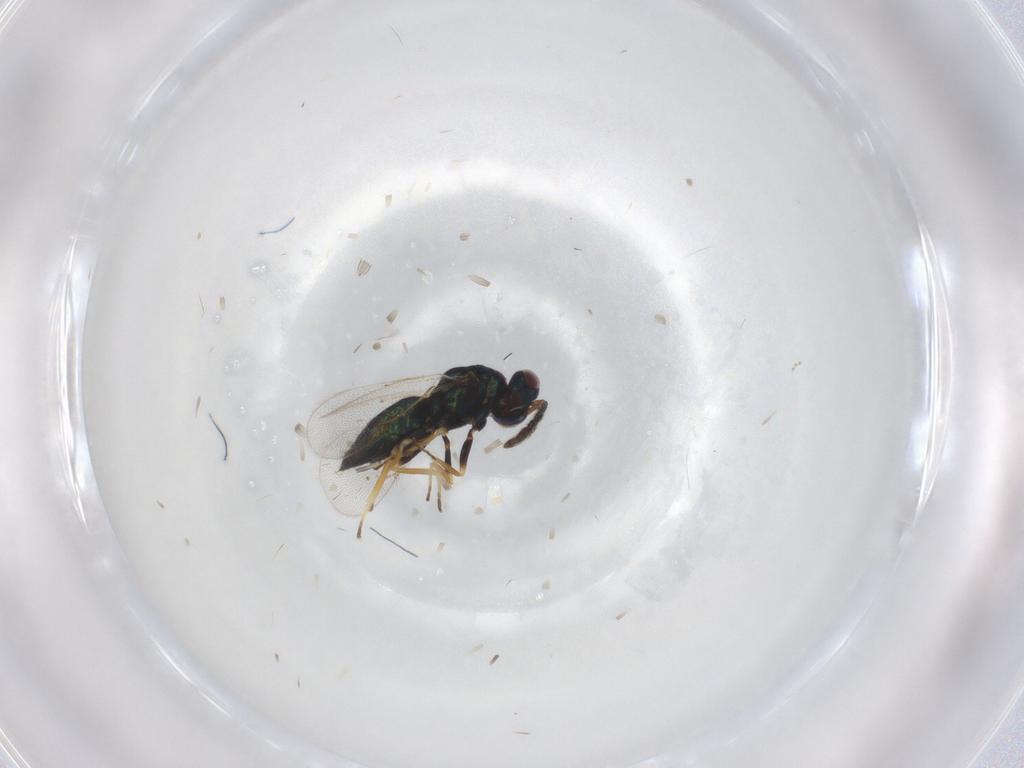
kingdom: Animalia
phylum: Arthropoda
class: Insecta
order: Hymenoptera
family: Eulophidae
